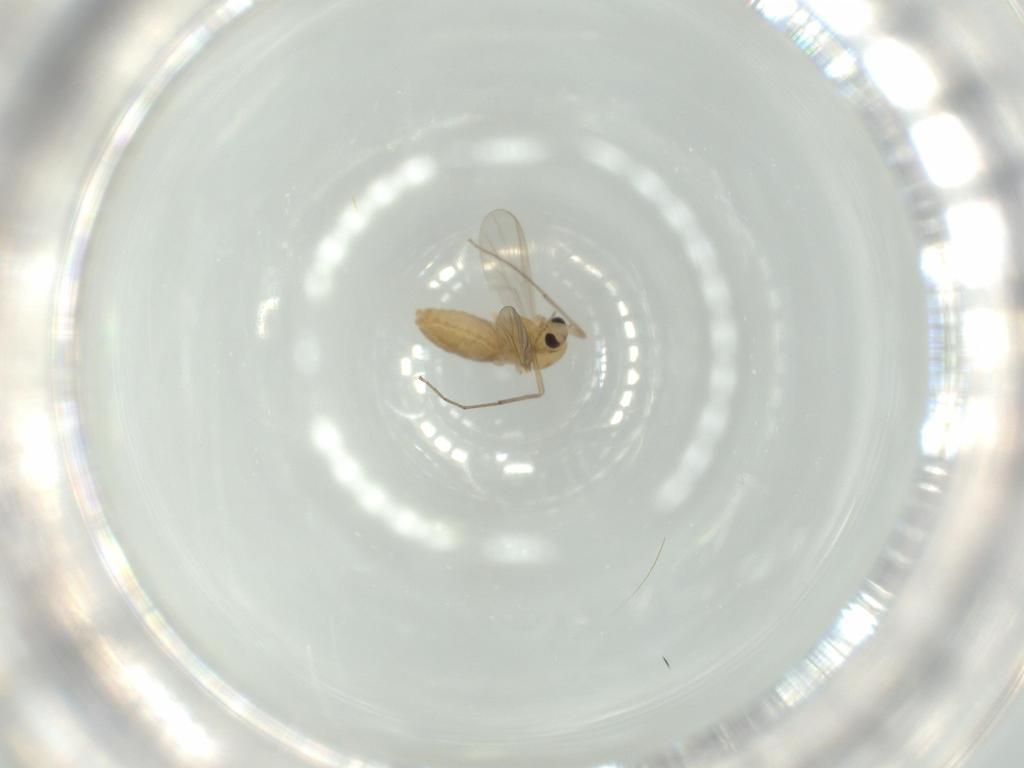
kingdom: Animalia
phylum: Arthropoda
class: Insecta
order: Diptera
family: Chironomidae
